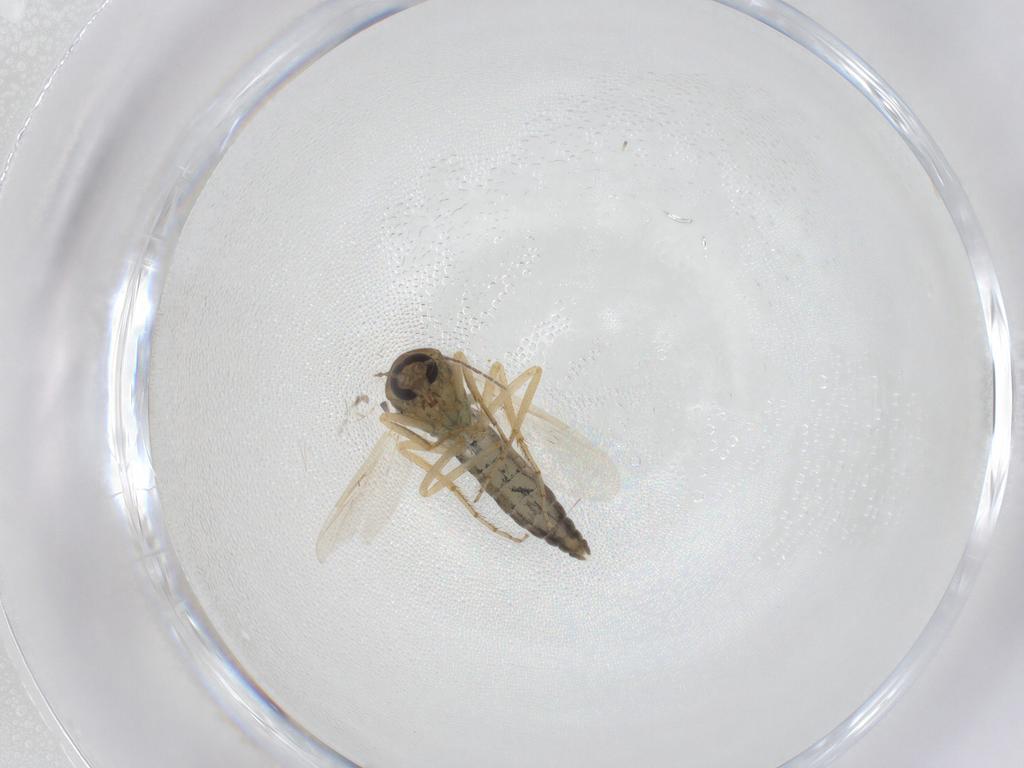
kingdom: Animalia
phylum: Arthropoda
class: Insecta
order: Diptera
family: Ceratopogonidae
